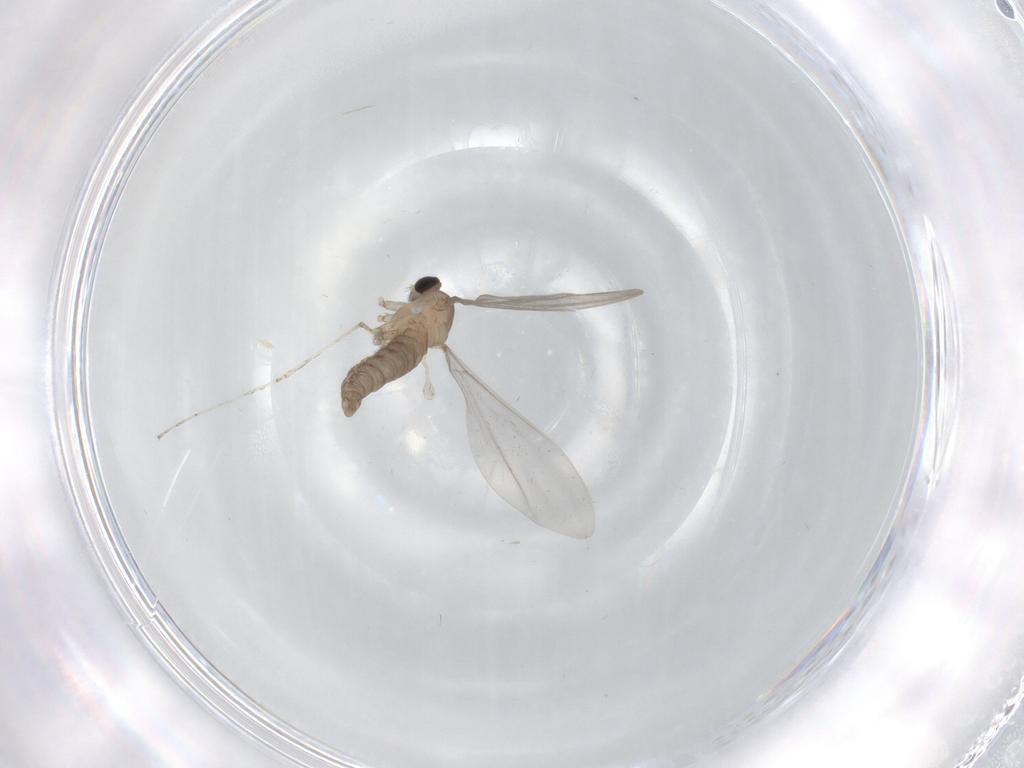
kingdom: Animalia
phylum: Arthropoda
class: Insecta
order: Diptera
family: Cecidomyiidae
